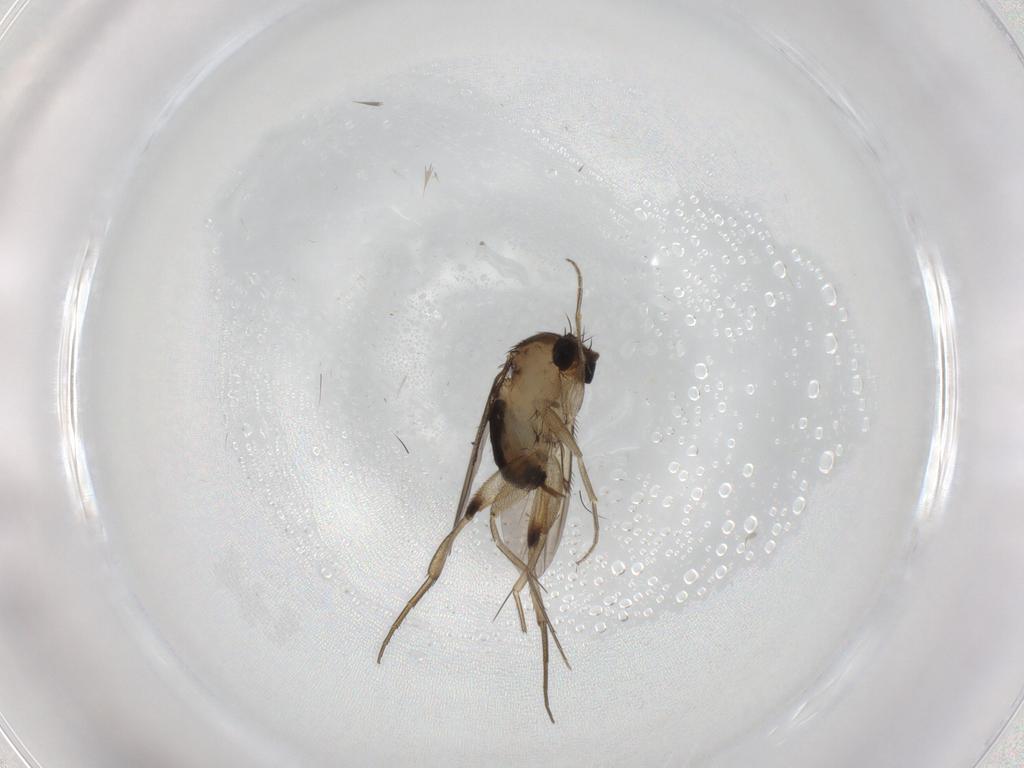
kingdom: Animalia
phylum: Arthropoda
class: Insecta
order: Diptera
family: Phoridae
